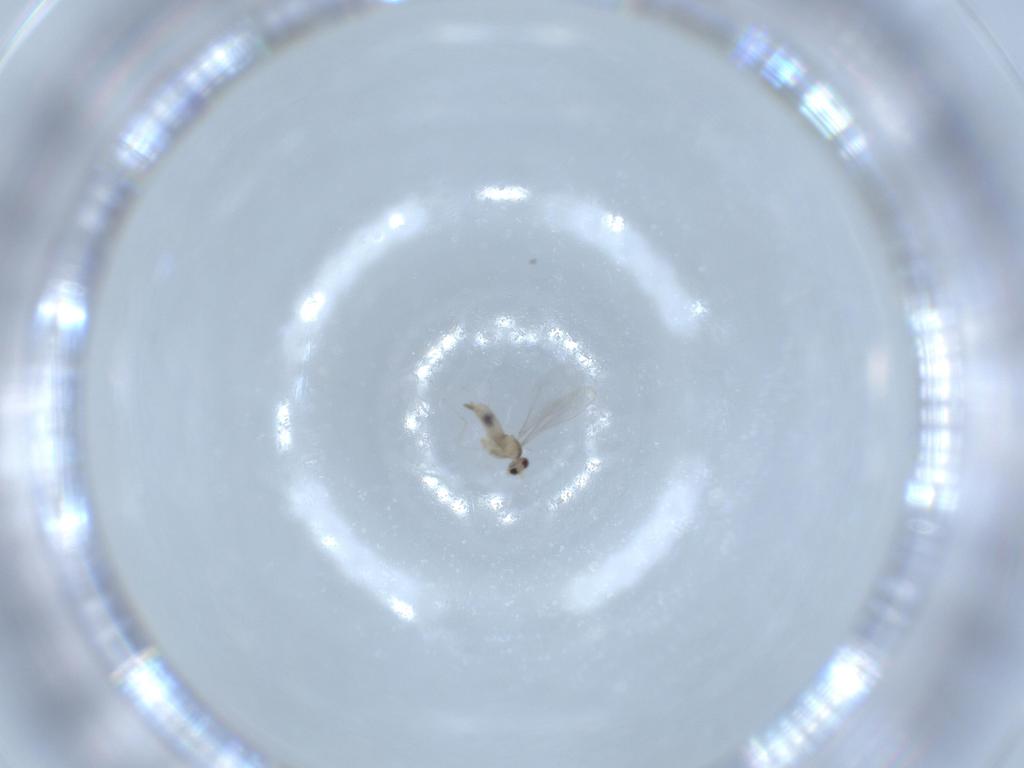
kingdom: Animalia
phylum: Arthropoda
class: Insecta
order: Diptera
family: Cecidomyiidae
